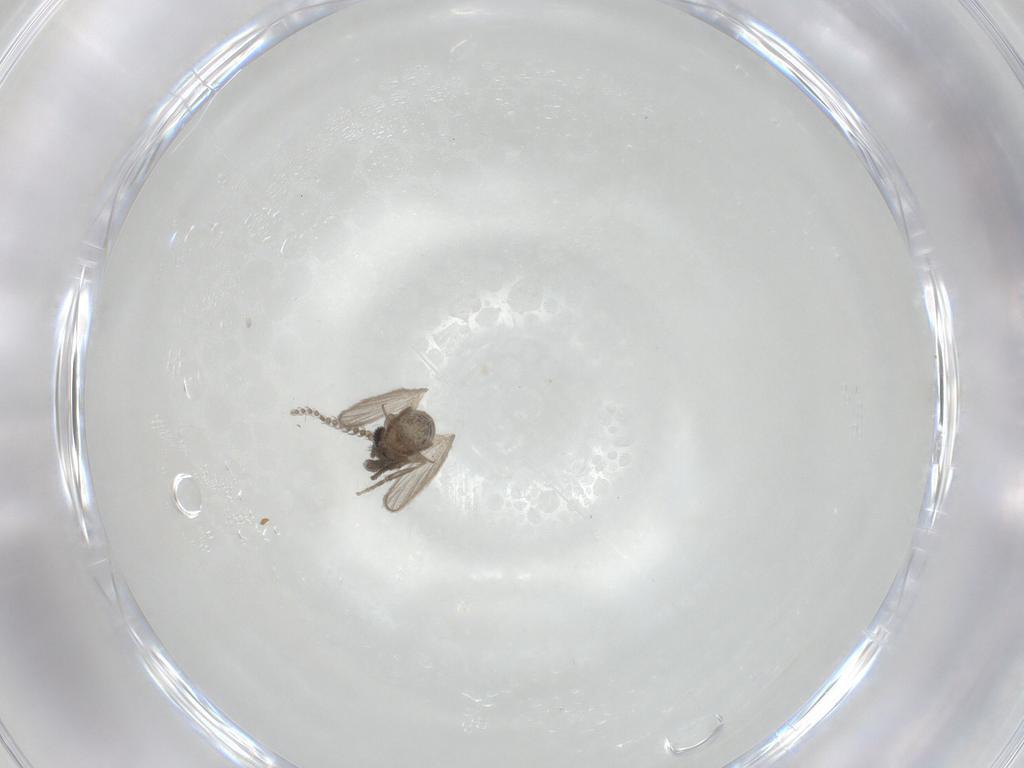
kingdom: Animalia
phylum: Arthropoda
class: Insecta
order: Diptera
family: Psychodidae
